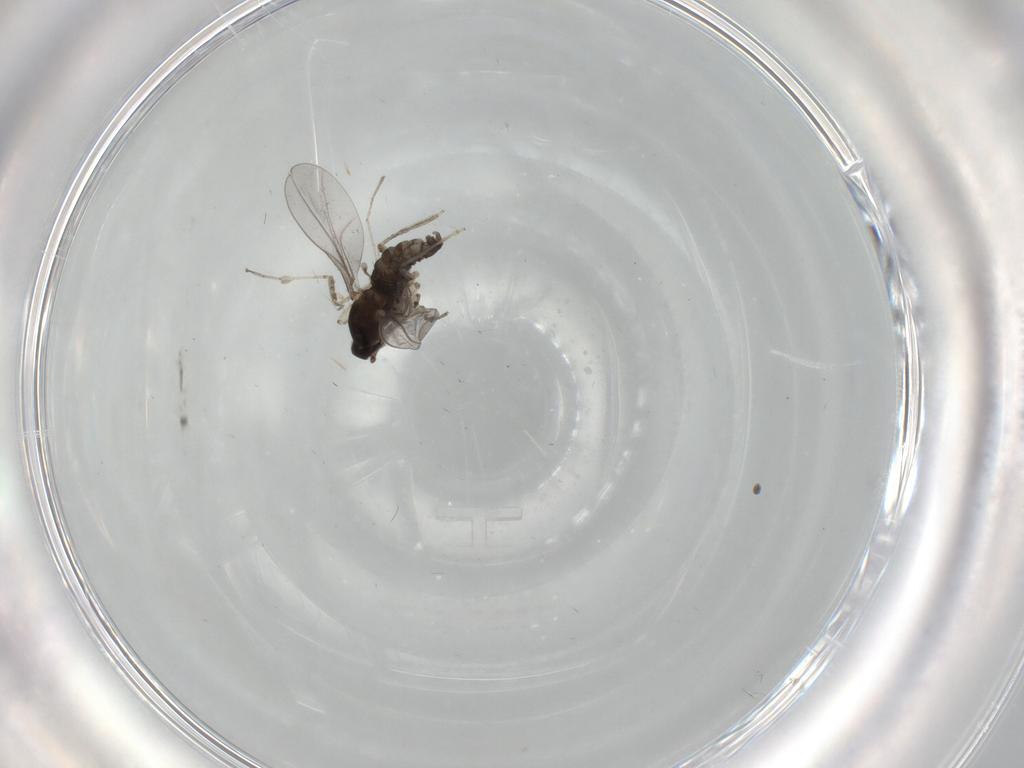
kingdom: Animalia
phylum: Arthropoda
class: Insecta
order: Diptera
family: Cecidomyiidae
